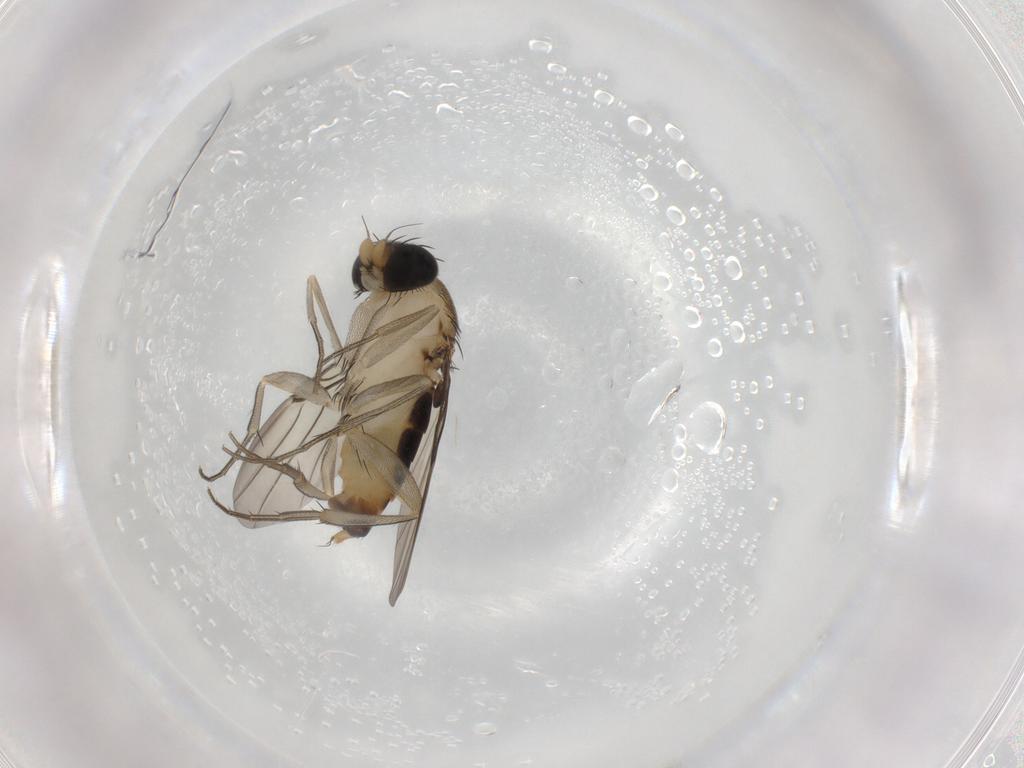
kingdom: Animalia
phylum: Arthropoda
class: Insecta
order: Diptera
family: Phoridae
